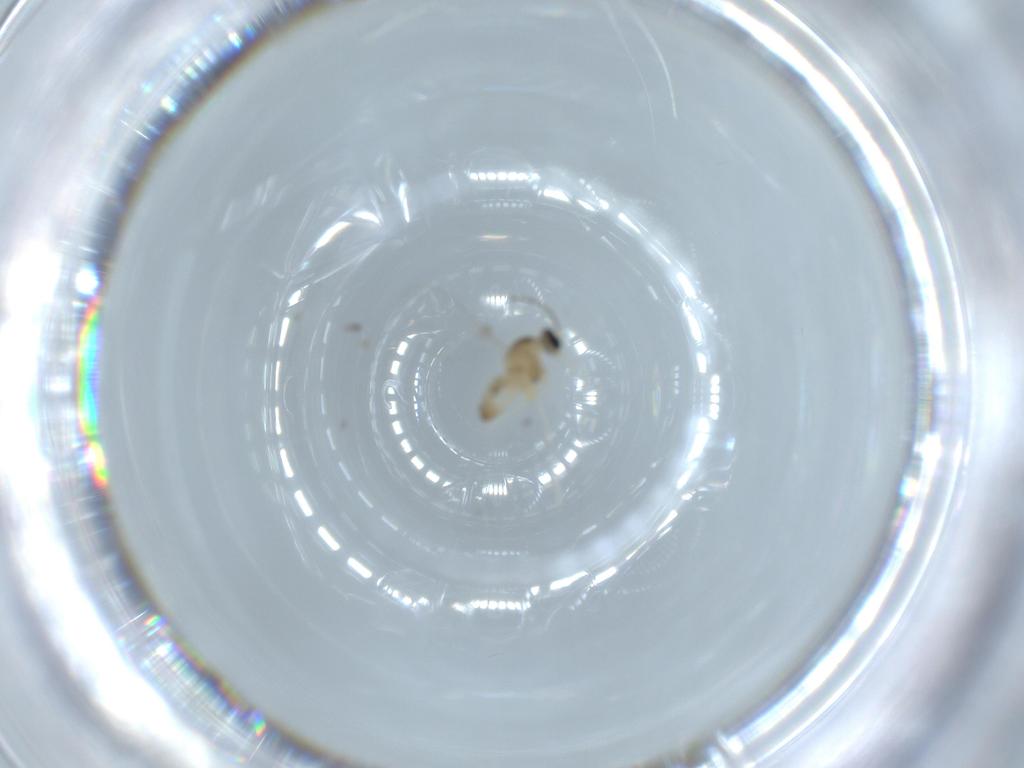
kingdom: Animalia
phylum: Arthropoda
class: Insecta
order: Diptera
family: Cecidomyiidae
